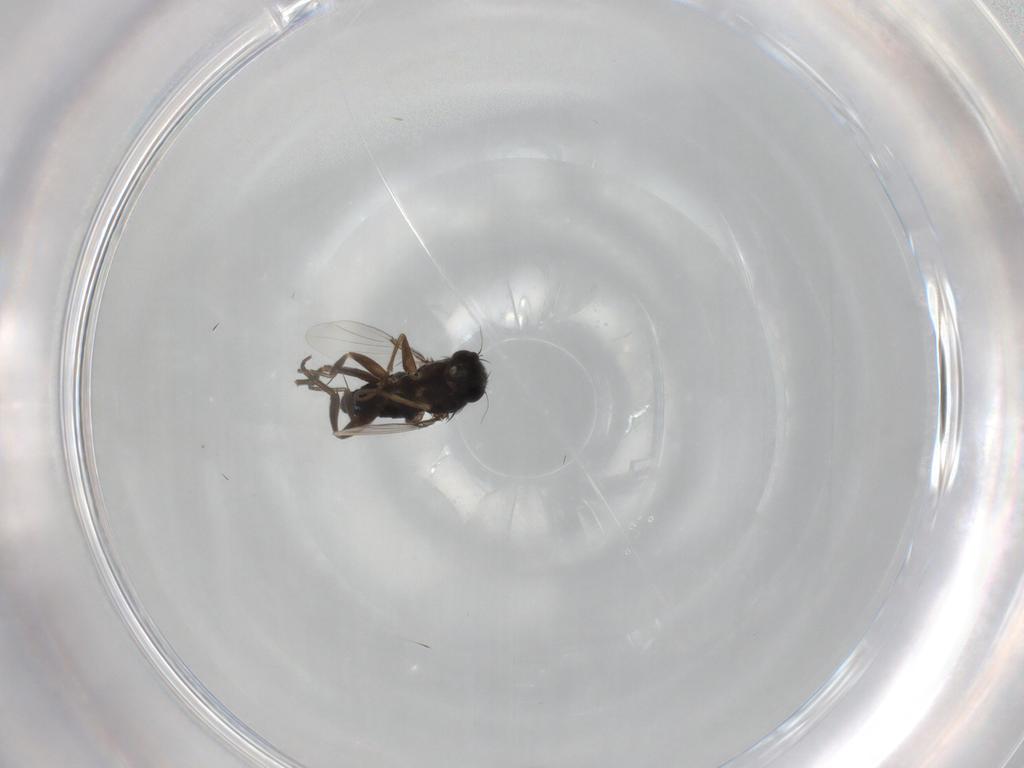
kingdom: Animalia
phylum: Arthropoda
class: Insecta
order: Diptera
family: Phoridae
